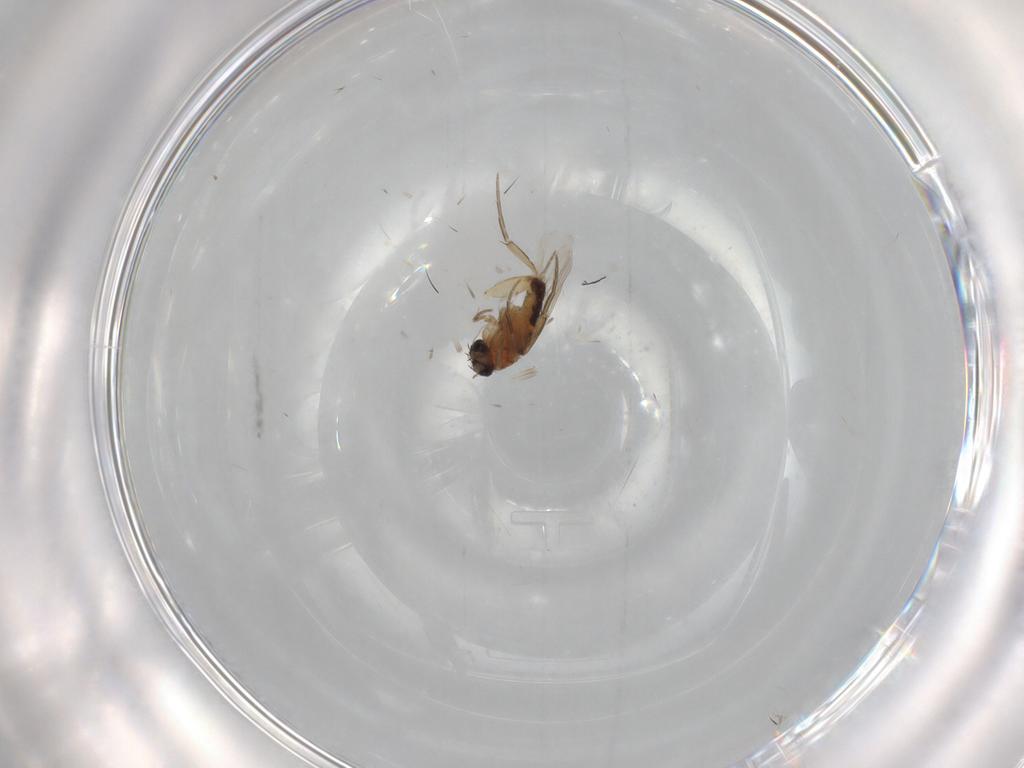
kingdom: Animalia
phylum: Arthropoda
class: Insecta
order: Diptera
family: Cecidomyiidae
